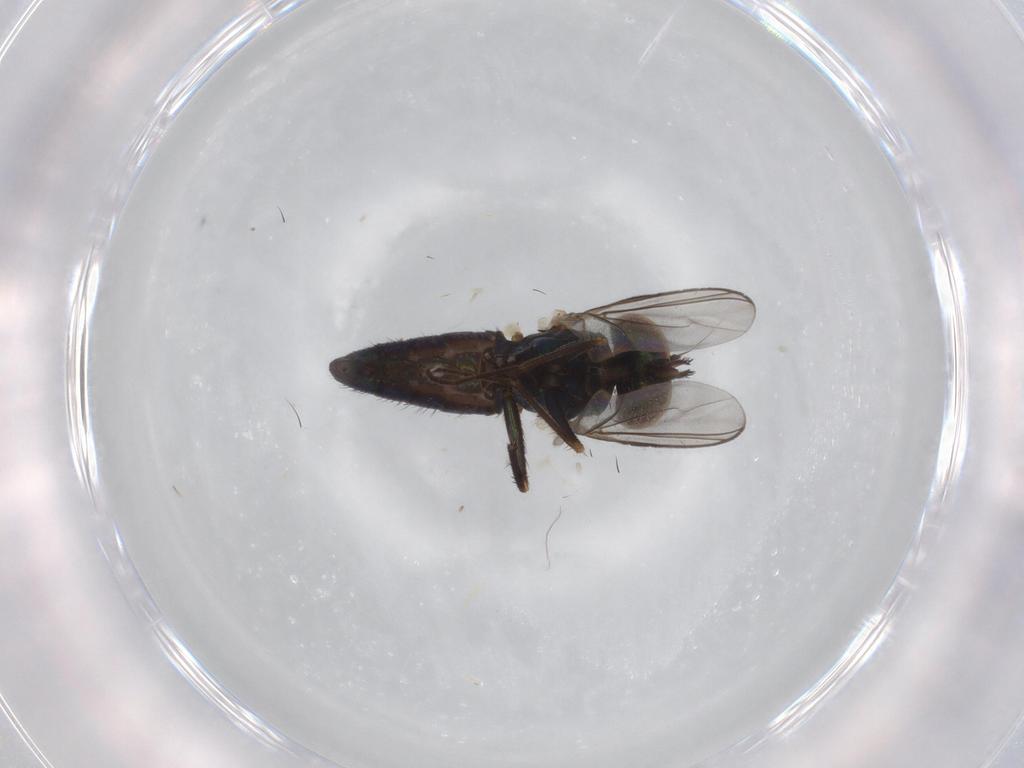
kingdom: Animalia
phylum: Arthropoda
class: Insecta
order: Diptera
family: Dolichopodidae
